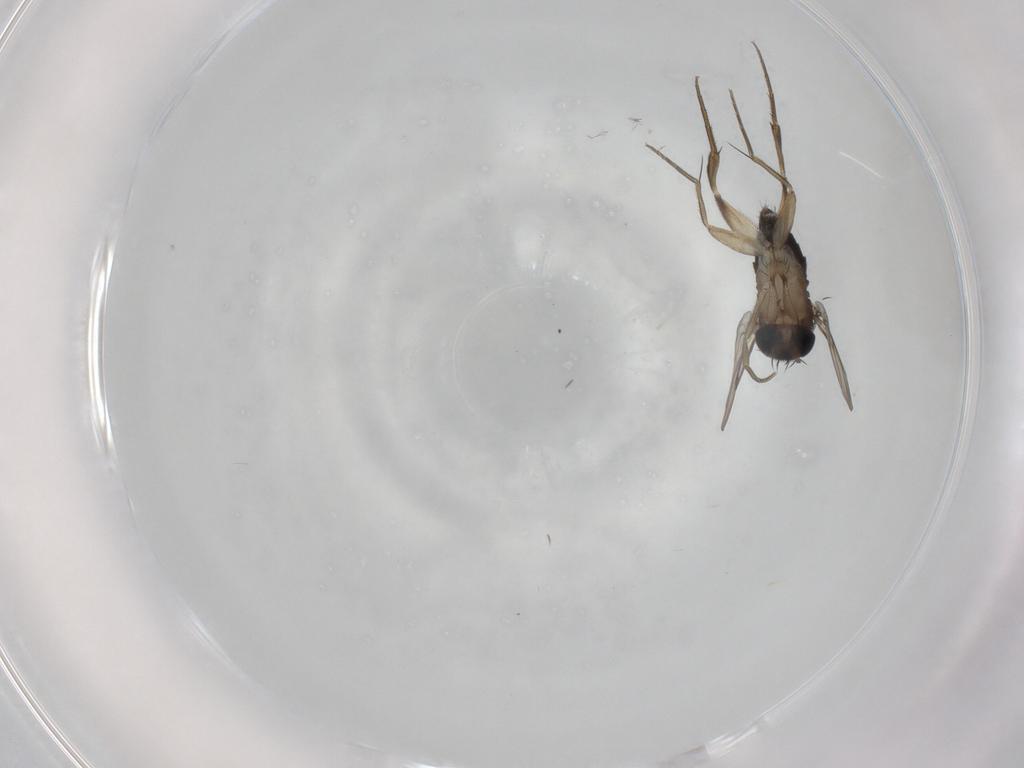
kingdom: Animalia
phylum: Arthropoda
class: Insecta
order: Diptera
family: Phoridae
